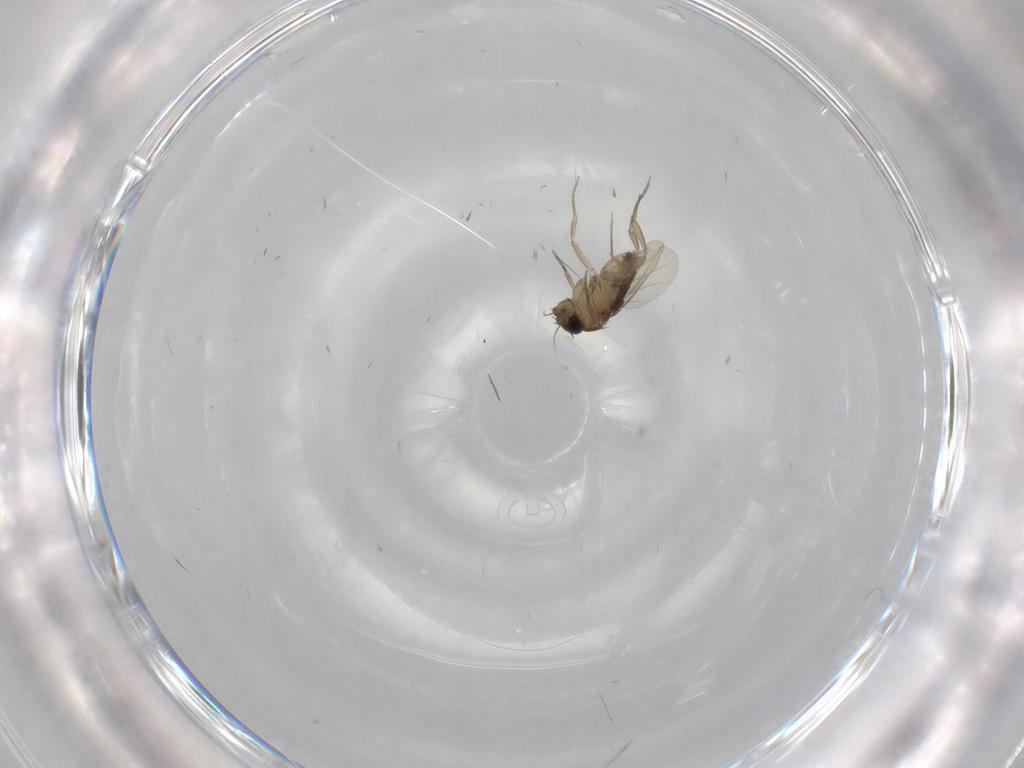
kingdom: Animalia
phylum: Arthropoda
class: Insecta
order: Diptera
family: Phoridae
